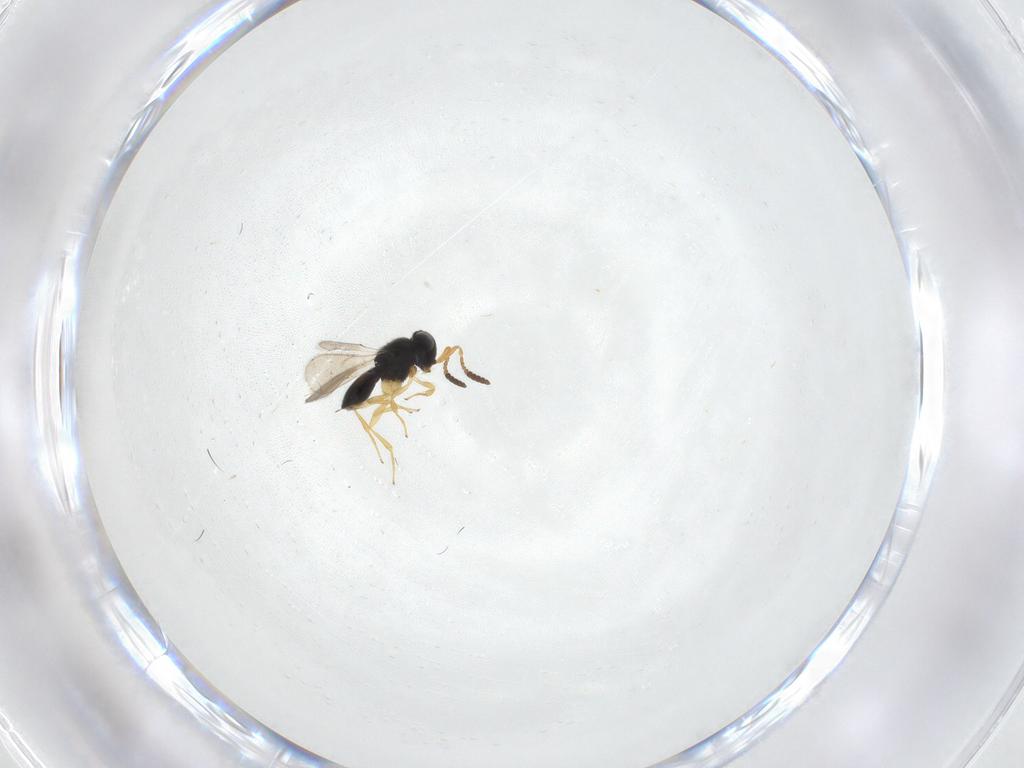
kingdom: Animalia
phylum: Arthropoda
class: Insecta
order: Hymenoptera
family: Scelionidae
